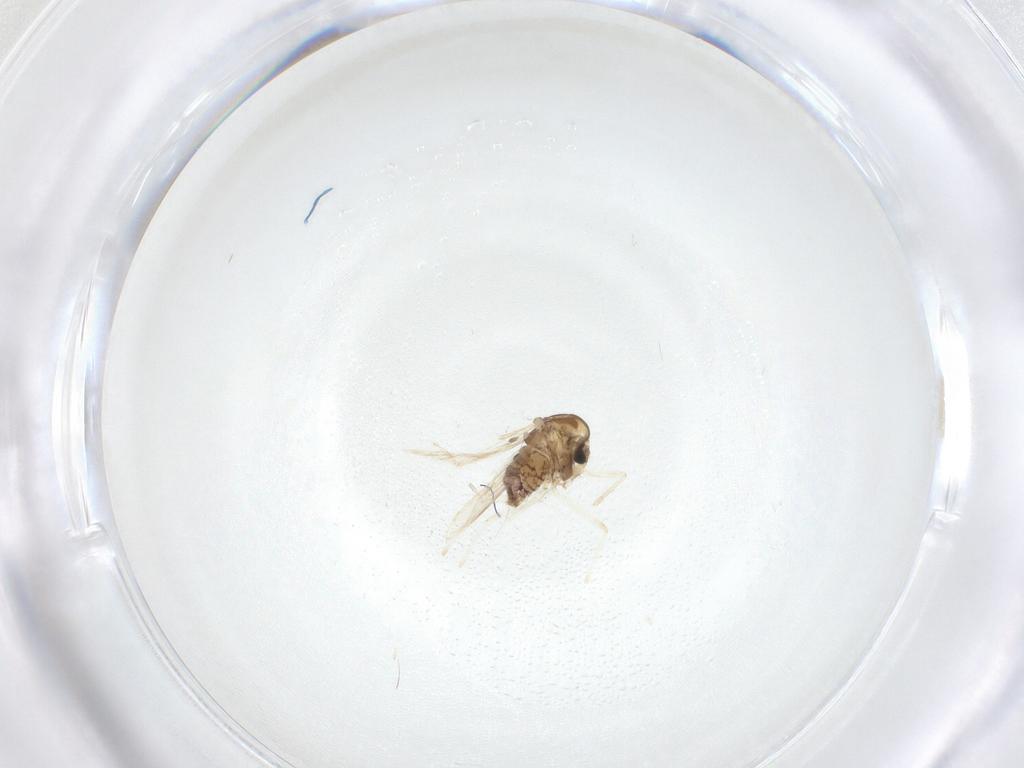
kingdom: Animalia
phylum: Arthropoda
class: Insecta
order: Diptera
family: Chironomidae
